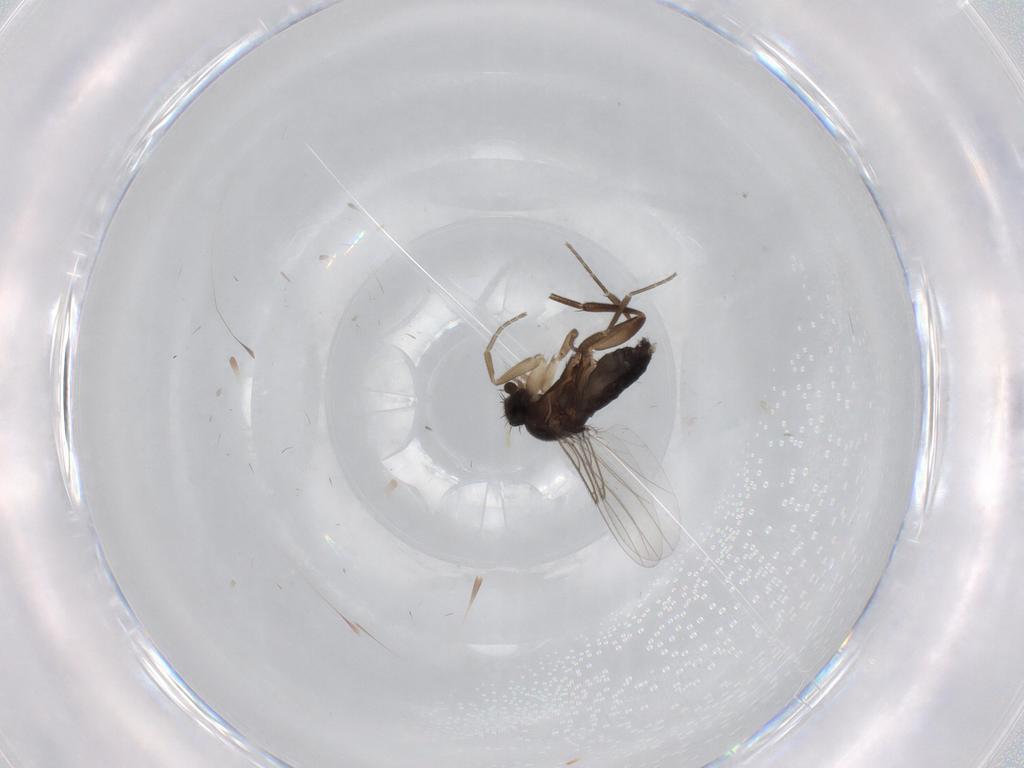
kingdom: Animalia
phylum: Arthropoda
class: Insecta
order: Diptera
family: Phoridae
